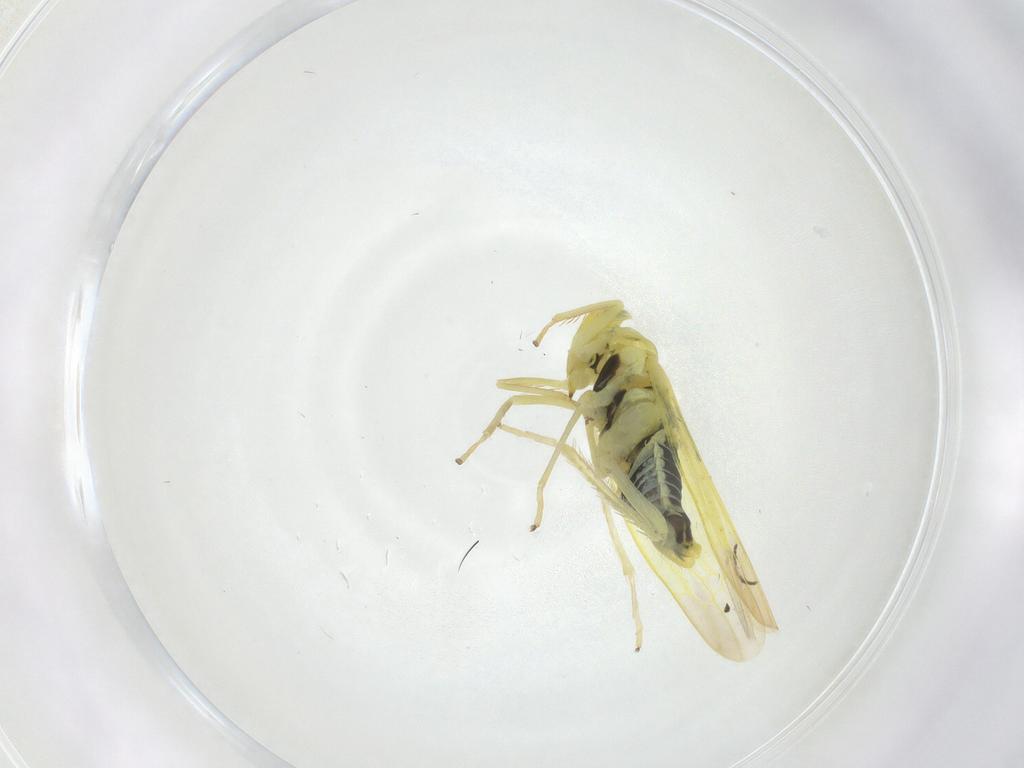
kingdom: Animalia
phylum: Arthropoda
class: Insecta
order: Hemiptera
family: Cicadellidae
